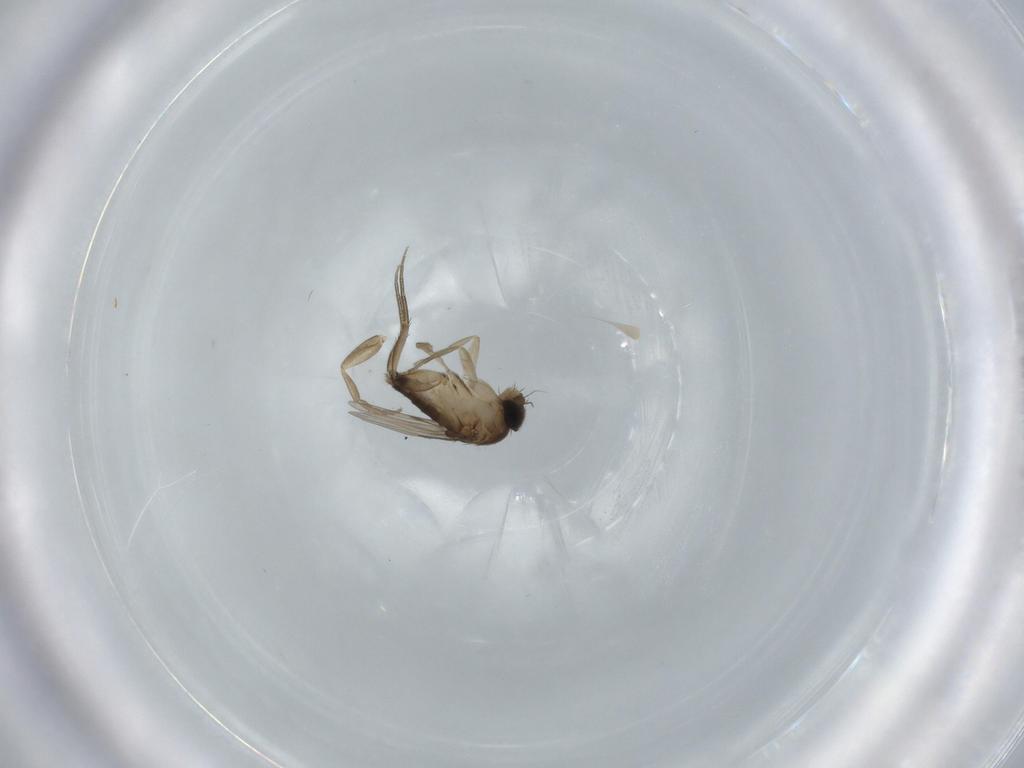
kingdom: Animalia
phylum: Arthropoda
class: Insecta
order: Diptera
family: Phoridae
